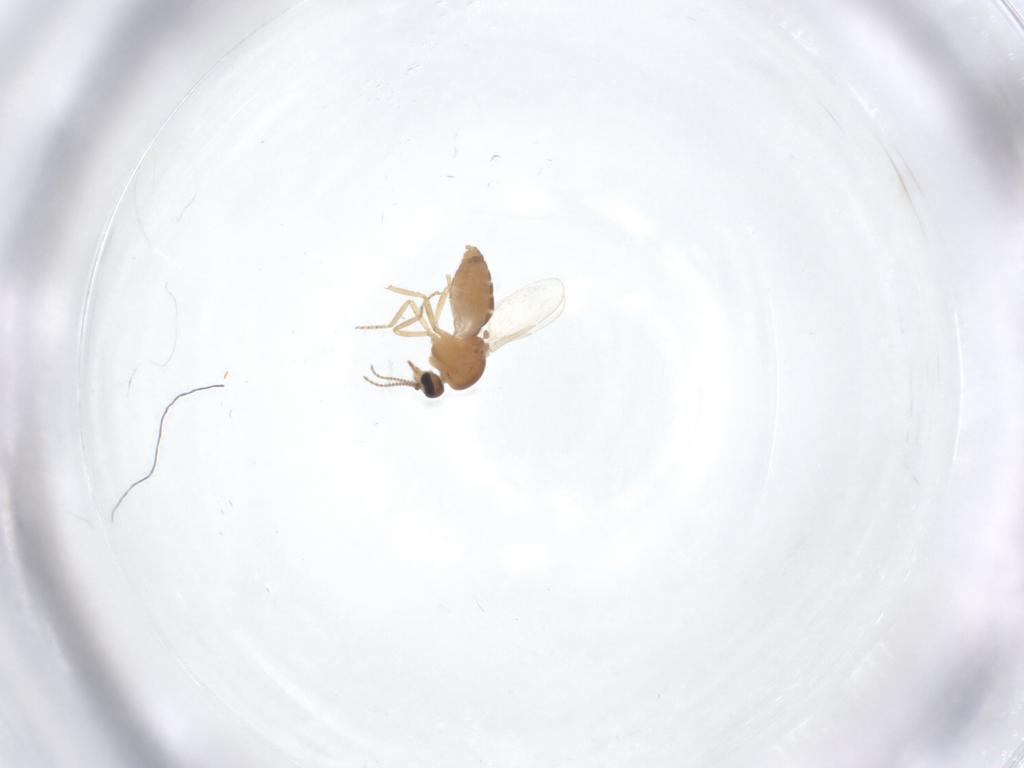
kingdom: Animalia
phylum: Arthropoda
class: Insecta
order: Diptera
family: Ceratopogonidae
